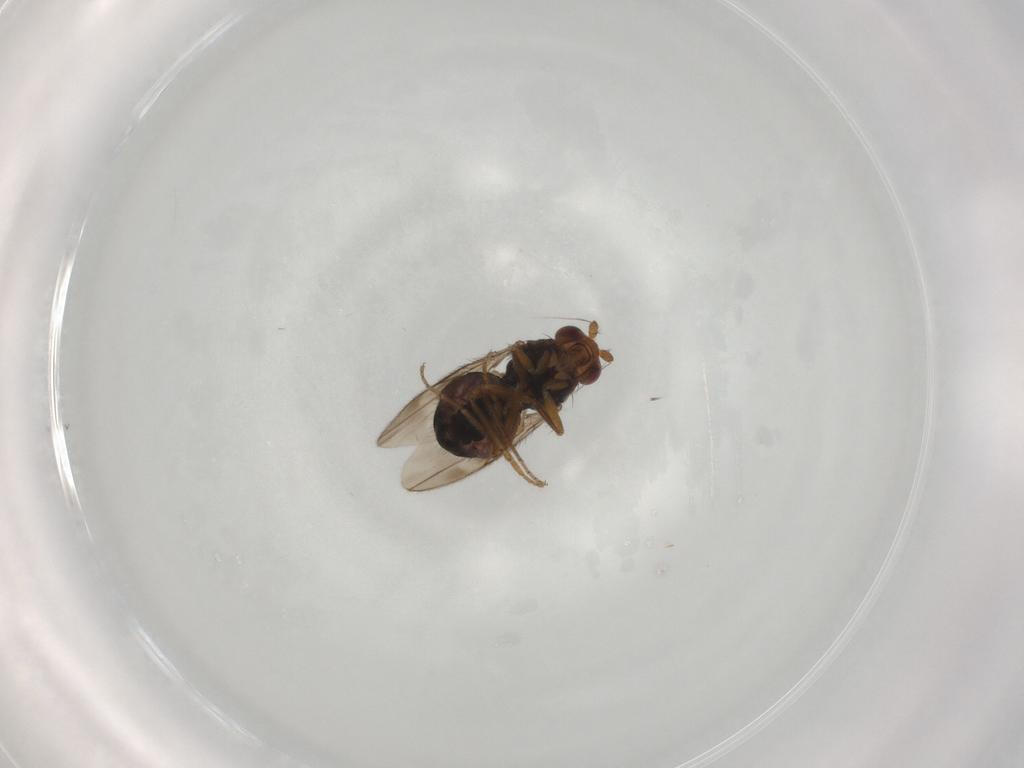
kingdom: Animalia
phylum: Arthropoda
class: Insecta
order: Diptera
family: Sphaeroceridae
